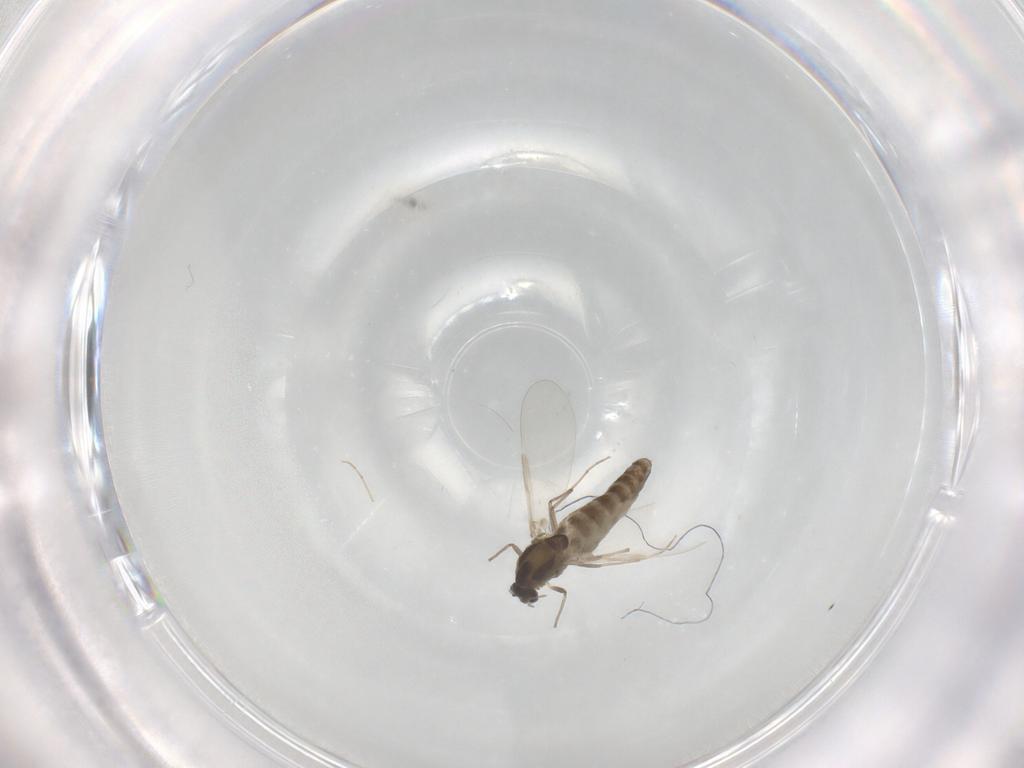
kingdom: Animalia
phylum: Arthropoda
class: Insecta
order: Diptera
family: Chironomidae
